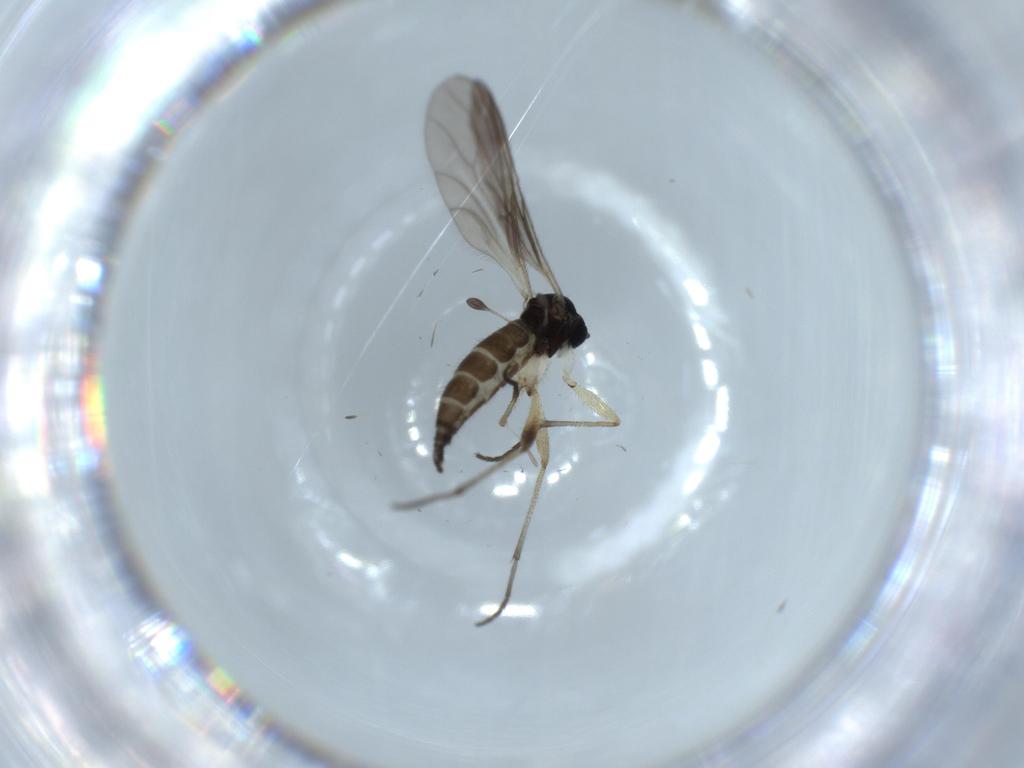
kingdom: Animalia
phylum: Arthropoda
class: Insecta
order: Diptera
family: Sciaridae
